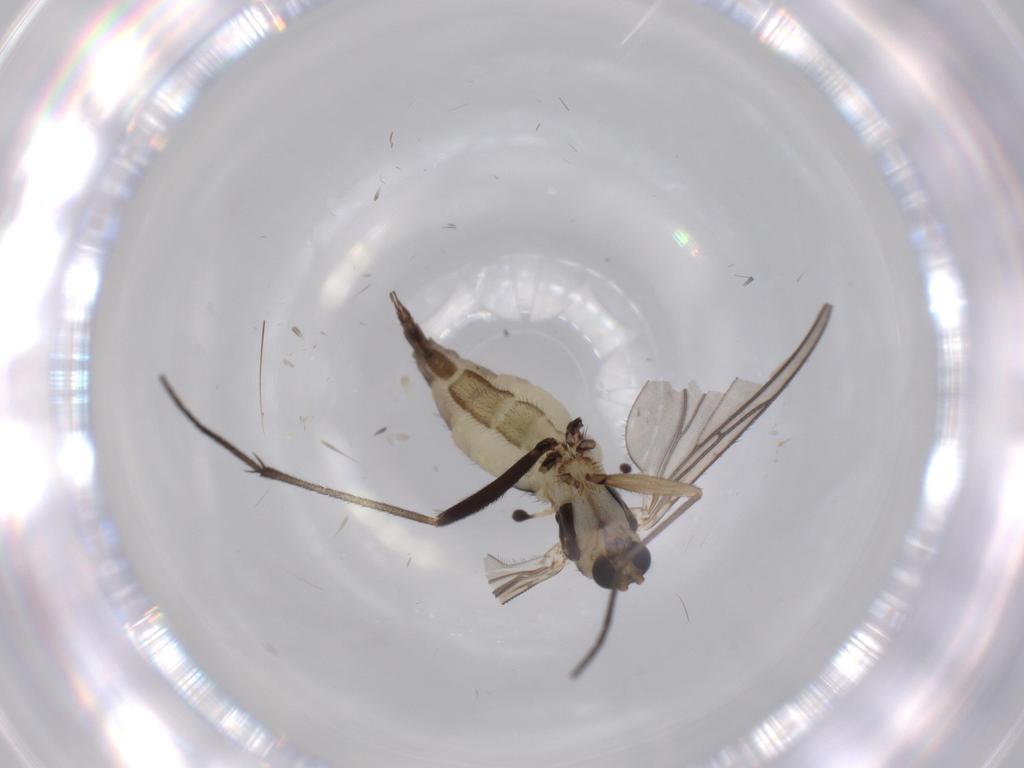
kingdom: Animalia
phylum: Arthropoda
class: Insecta
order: Diptera
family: Sciaridae
